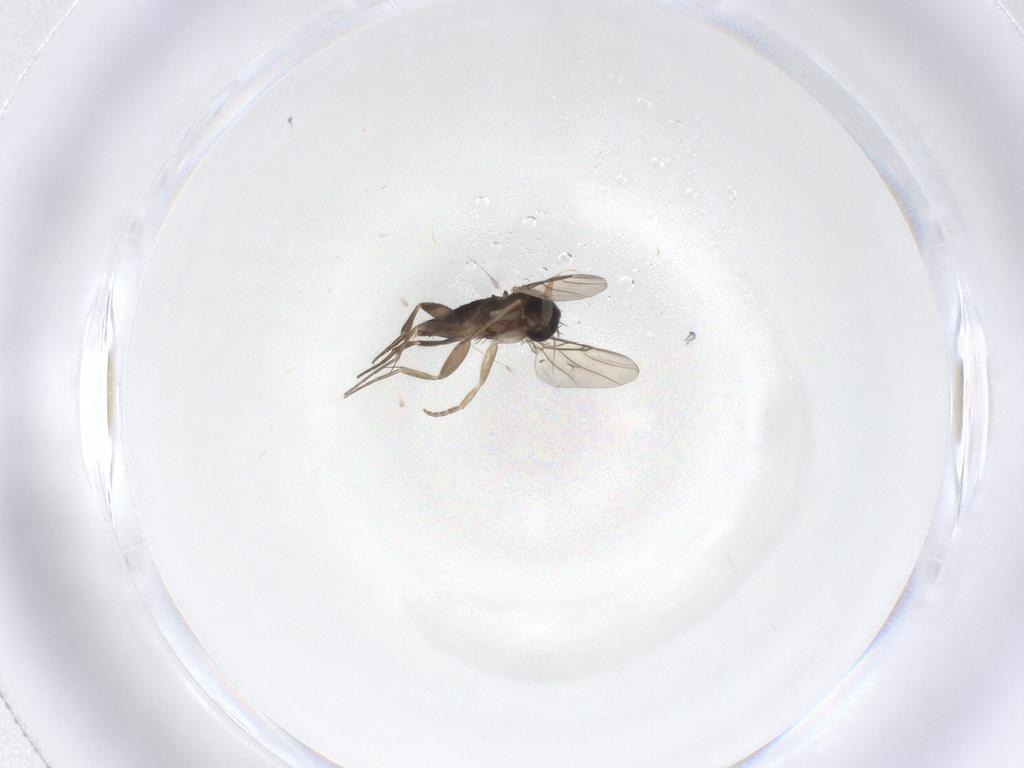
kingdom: Animalia
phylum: Arthropoda
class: Insecta
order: Diptera
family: Phoridae
